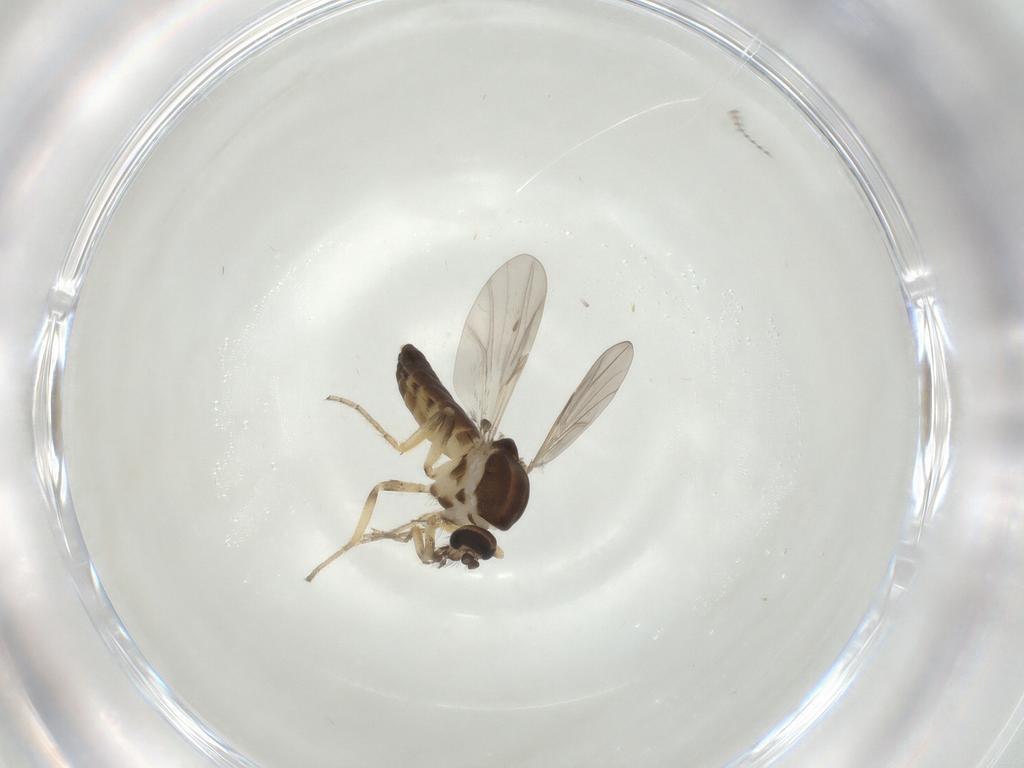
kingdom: Animalia
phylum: Arthropoda
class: Insecta
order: Diptera
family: Ceratopogonidae
